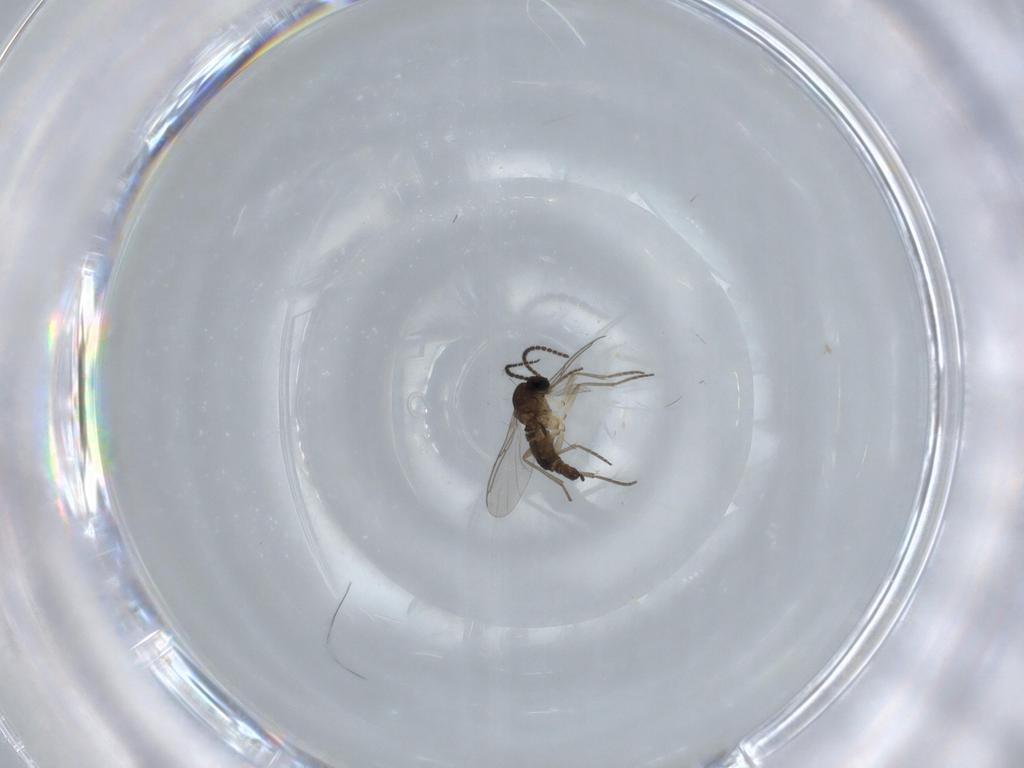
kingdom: Animalia
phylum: Arthropoda
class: Insecta
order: Diptera
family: Sciaridae
